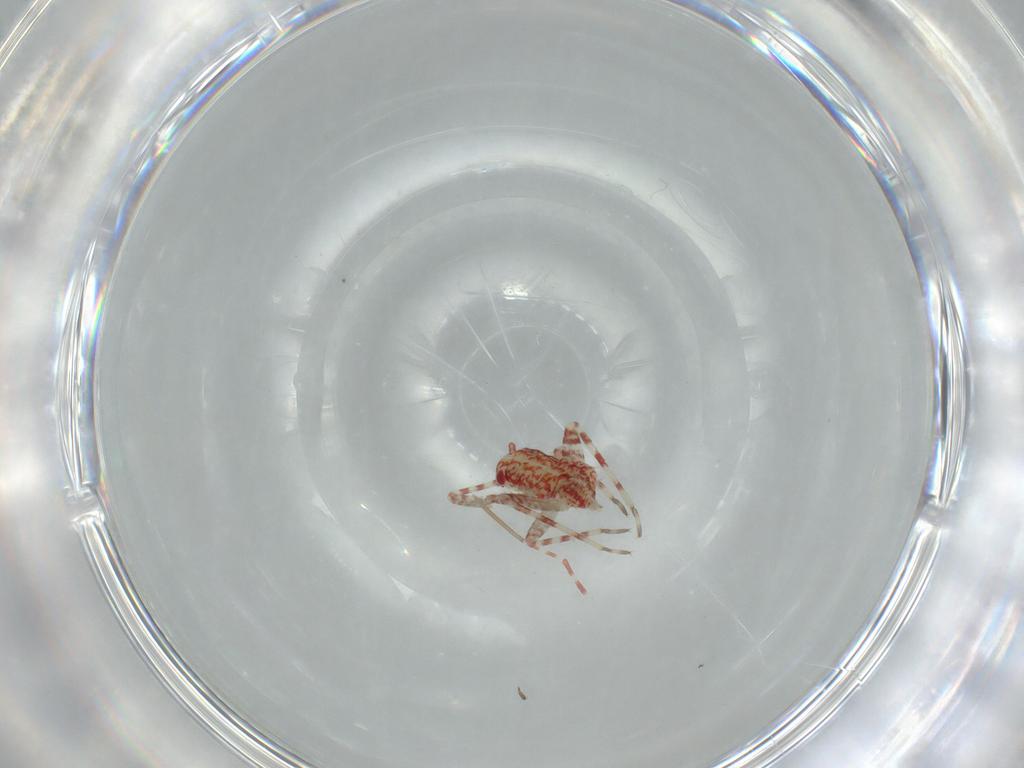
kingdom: Animalia
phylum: Arthropoda
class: Insecta
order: Hemiptera
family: Miridae
